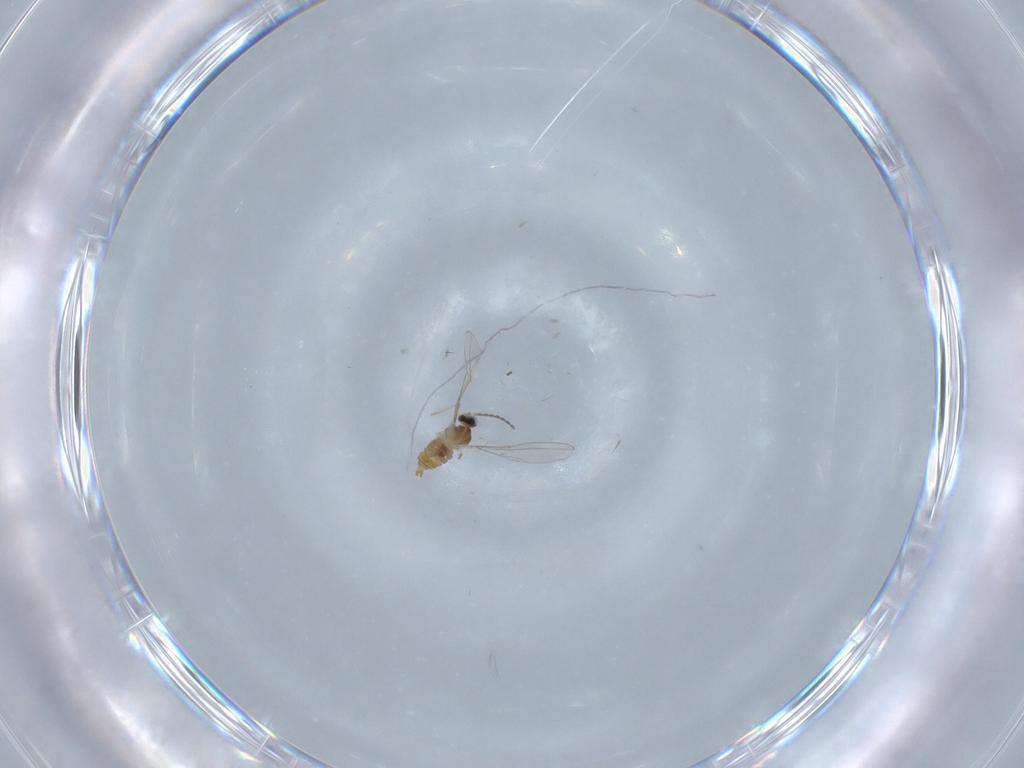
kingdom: Animalia
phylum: Arthropoda
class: Insecta
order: Diptera
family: Cecidomyiidae
